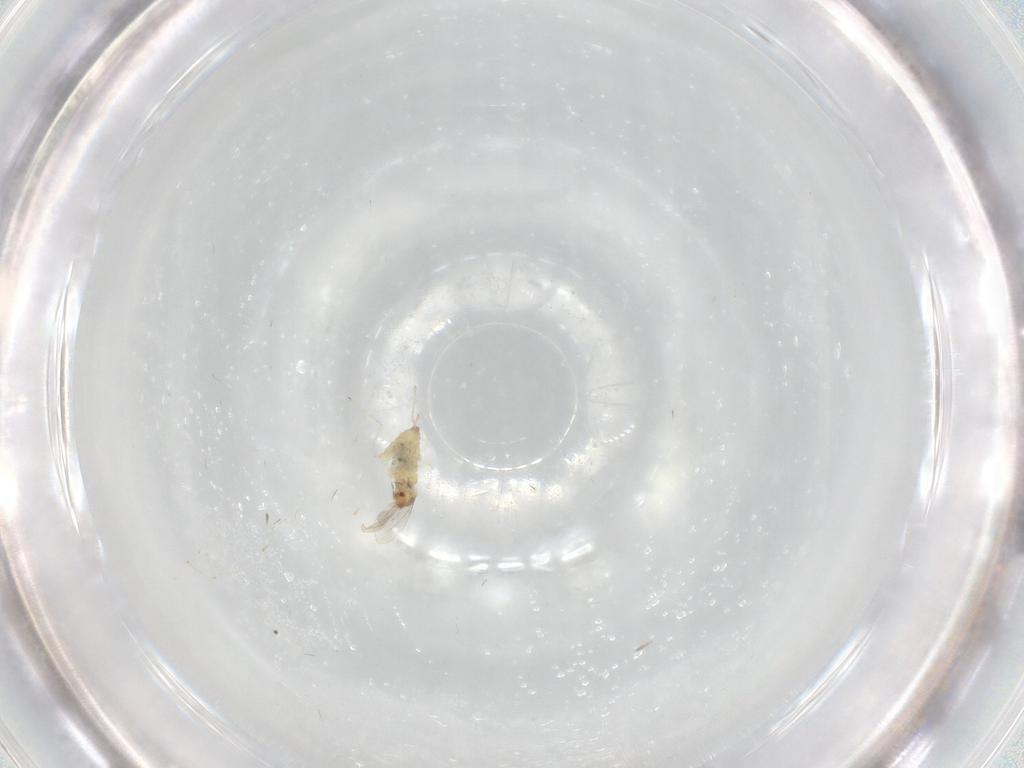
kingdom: Animalia
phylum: Arthropoda
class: Insecta
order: Diptera
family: Cecidomyiidae
